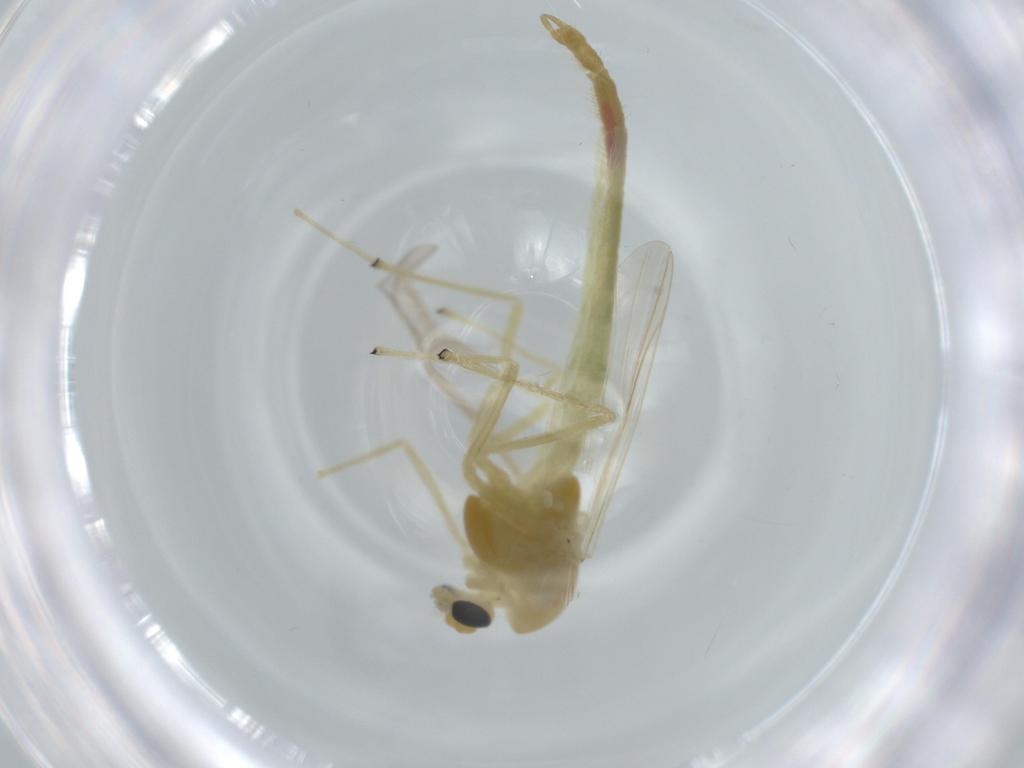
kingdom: Animalia
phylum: Arthropoda
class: Insecta
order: Diptera
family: Chironomidae
